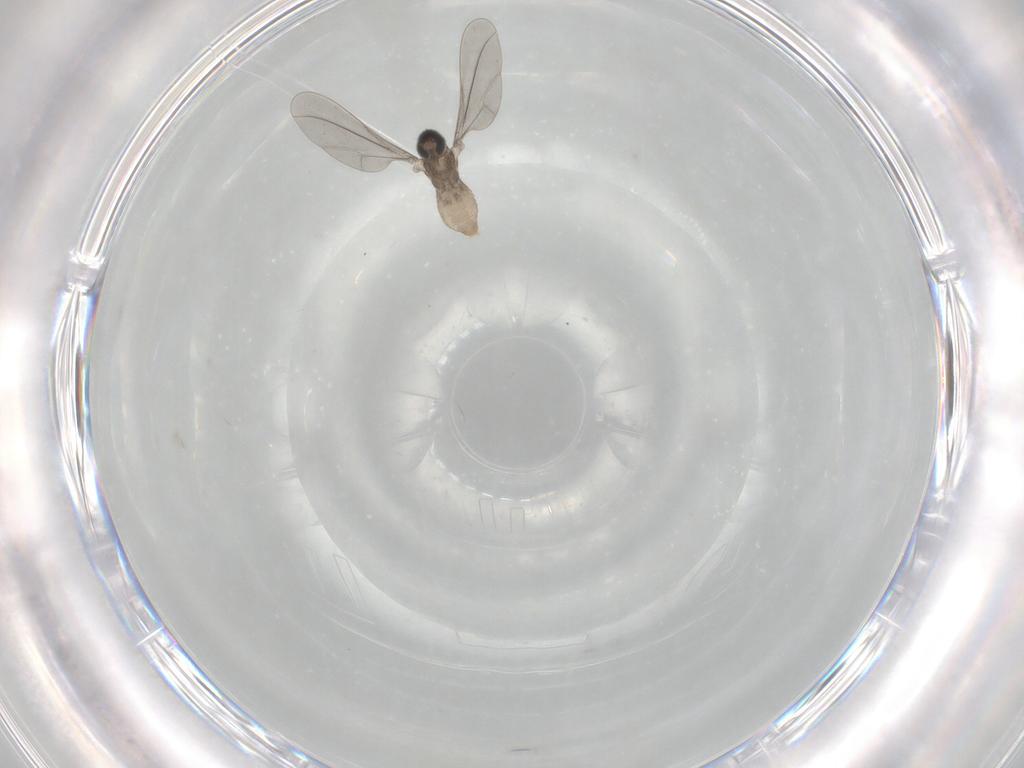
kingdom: Animalia
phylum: Arthropoda
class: Insecta
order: Diptera
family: Cecidomyiidae
